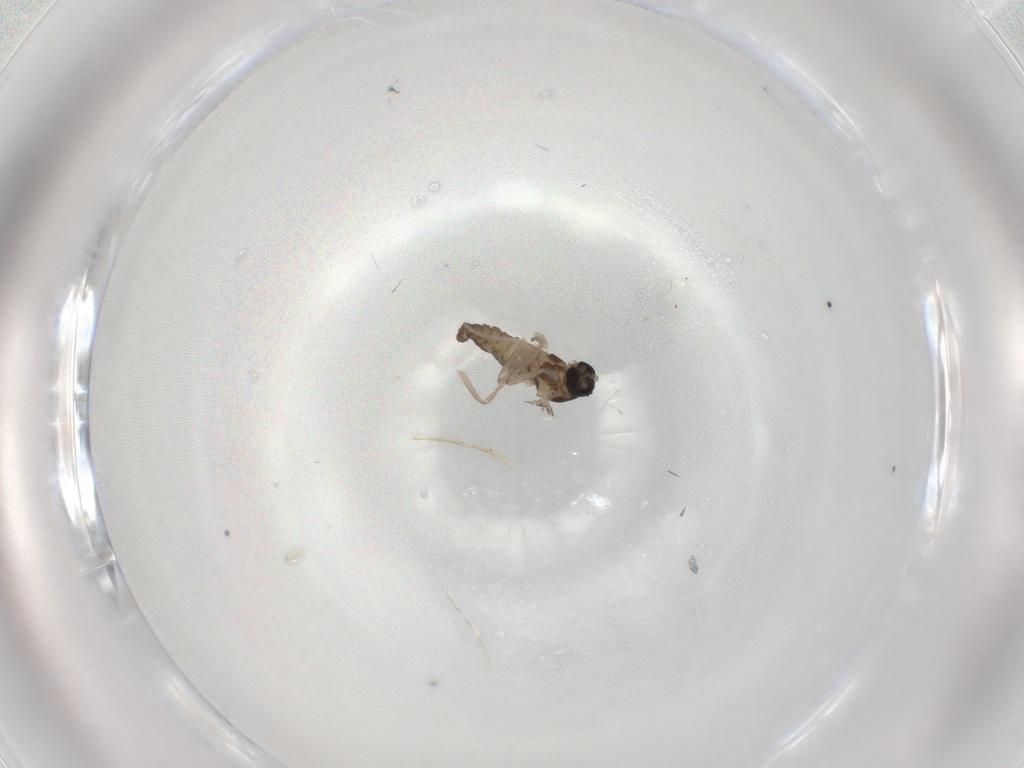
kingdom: Animalia
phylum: Arthropoda
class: Insecta
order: Diptera
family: Cecidomyiidae
